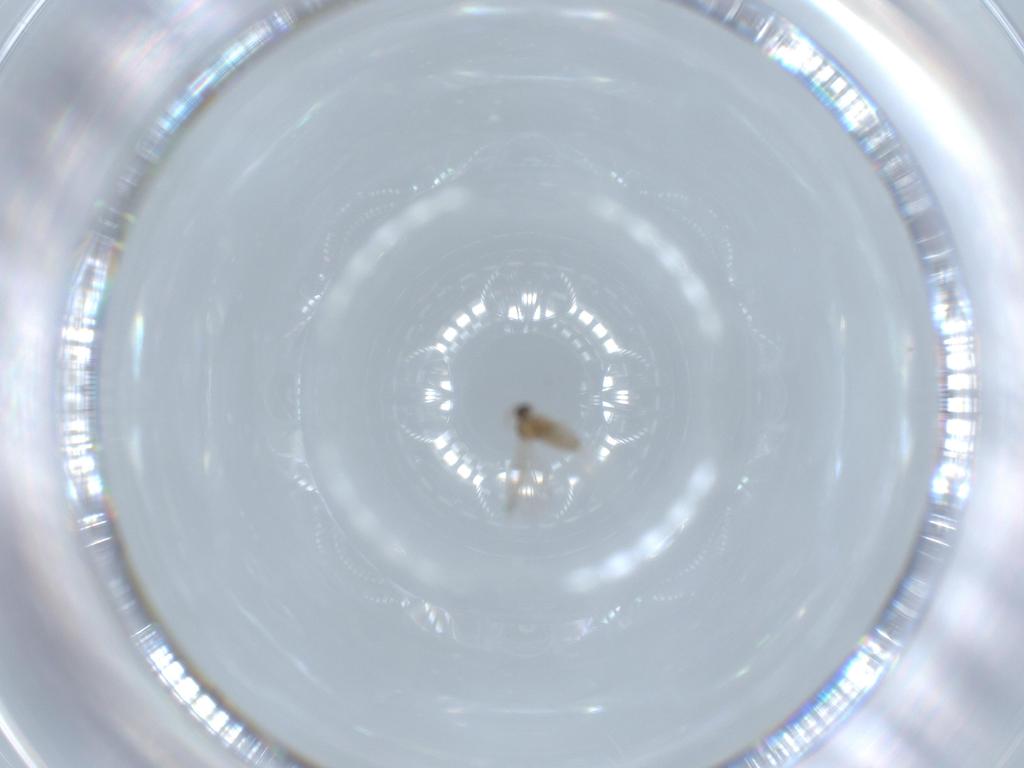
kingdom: Animalia
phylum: Arthropoda
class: Insecta
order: Diptera
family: Cecidomyiidae
